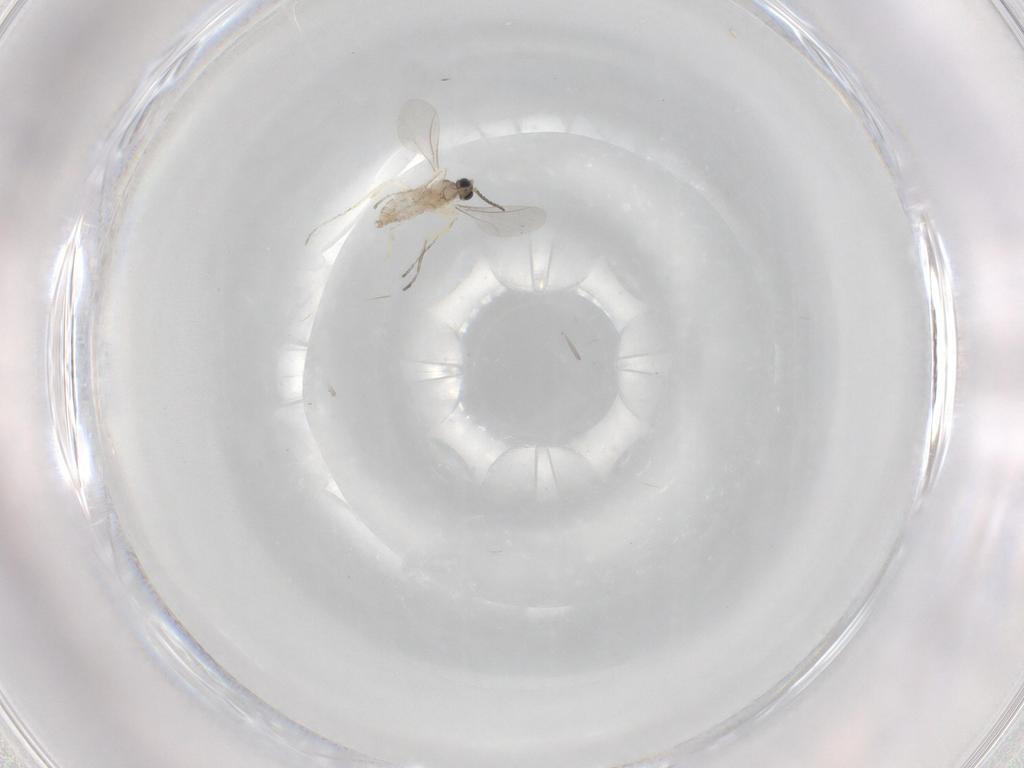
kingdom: Animalia
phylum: Arthropoda
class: Insecta
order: Diptera
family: Cecidomyiidae
